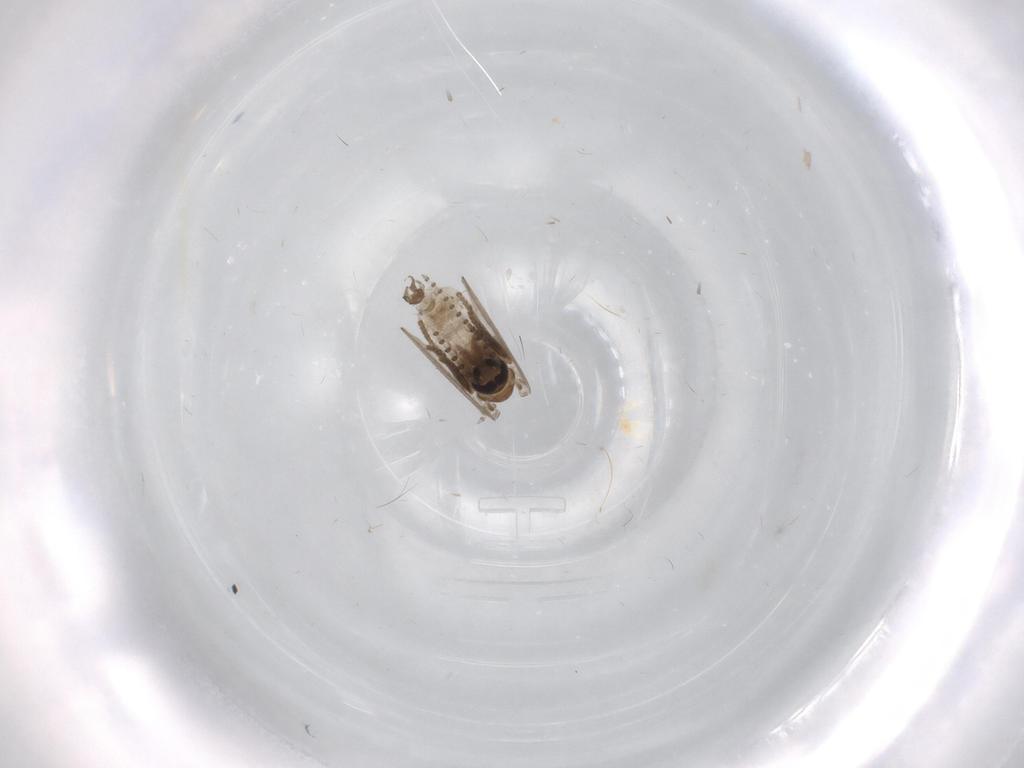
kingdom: Animalia
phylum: Arthropoda
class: Insecta
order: Diptera
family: Psychodidae
